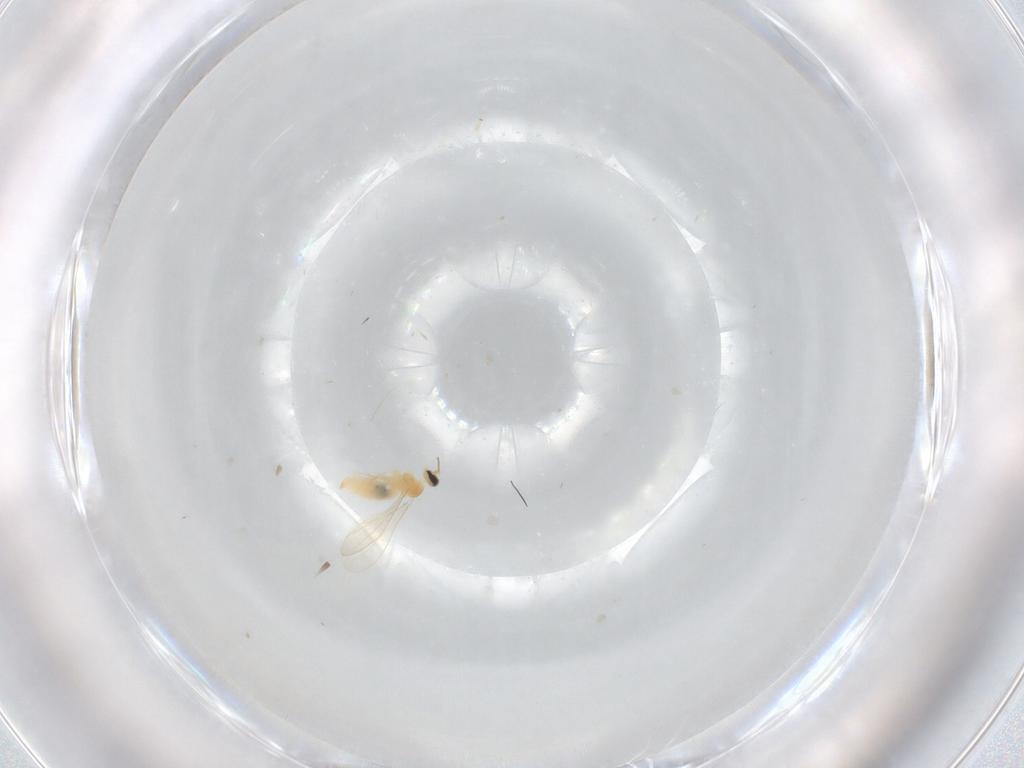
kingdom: Animalia
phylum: Arthropoda
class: Insecta
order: Diptera
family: Cecidomyiidae
